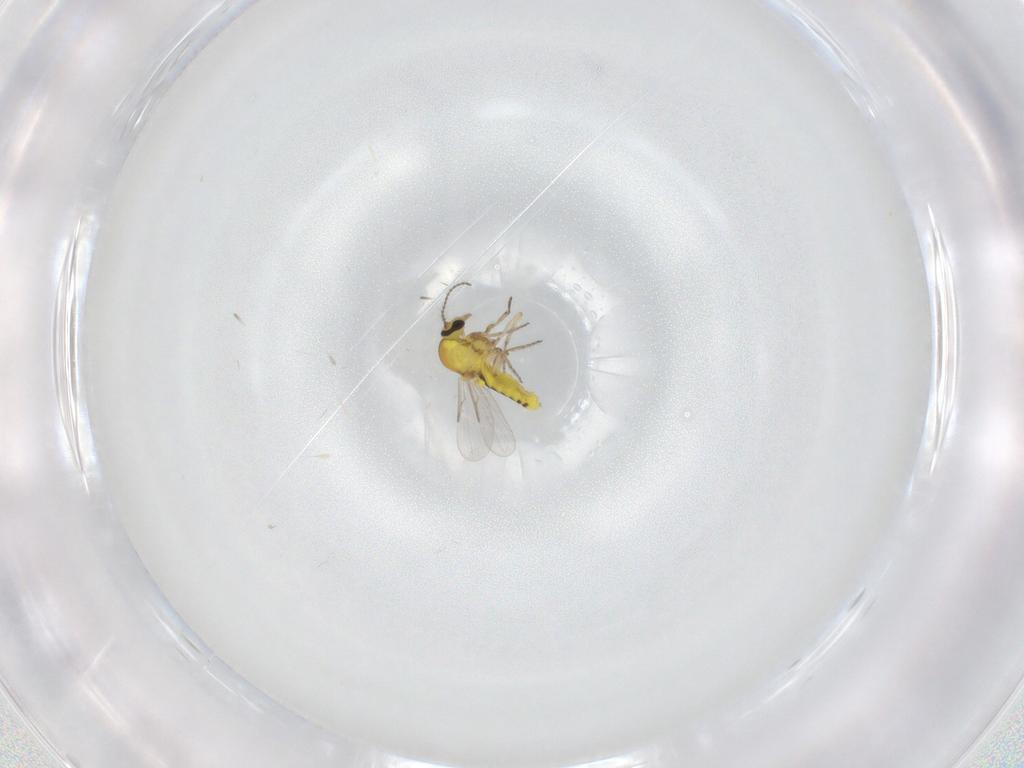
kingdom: Animalia
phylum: Arthropoda
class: Insecta
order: Diptera
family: Ceratopogonidae
